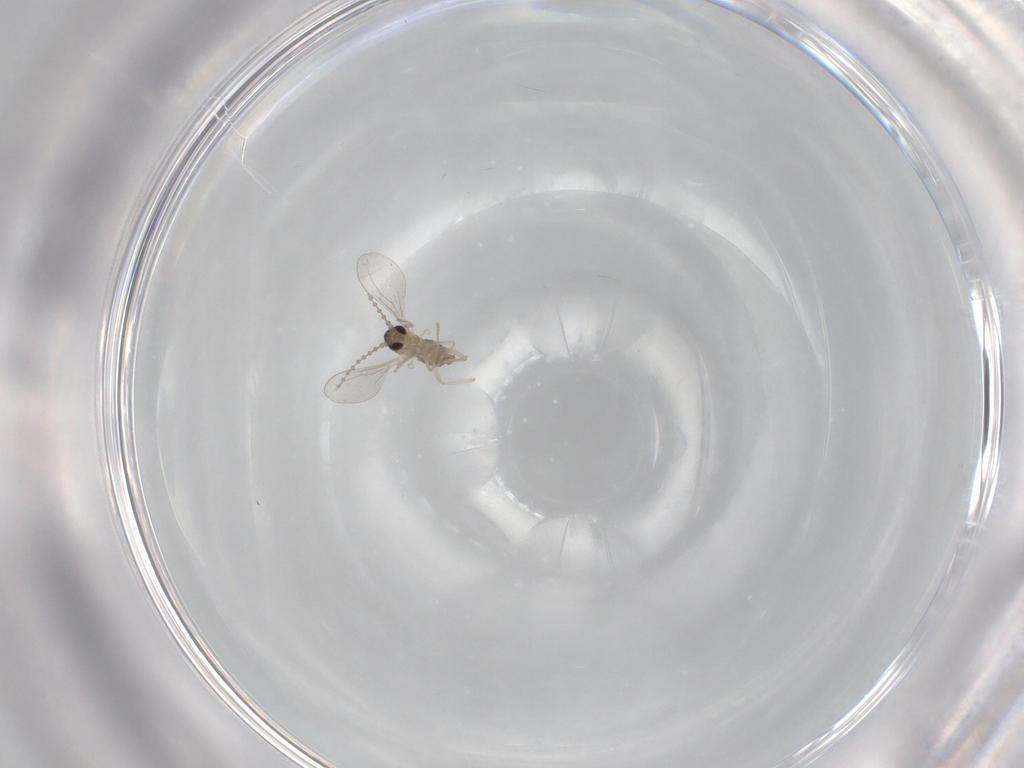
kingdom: Animalia
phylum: Arthropoda
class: Insecta
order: Diptera
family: Cecidomyiidae
